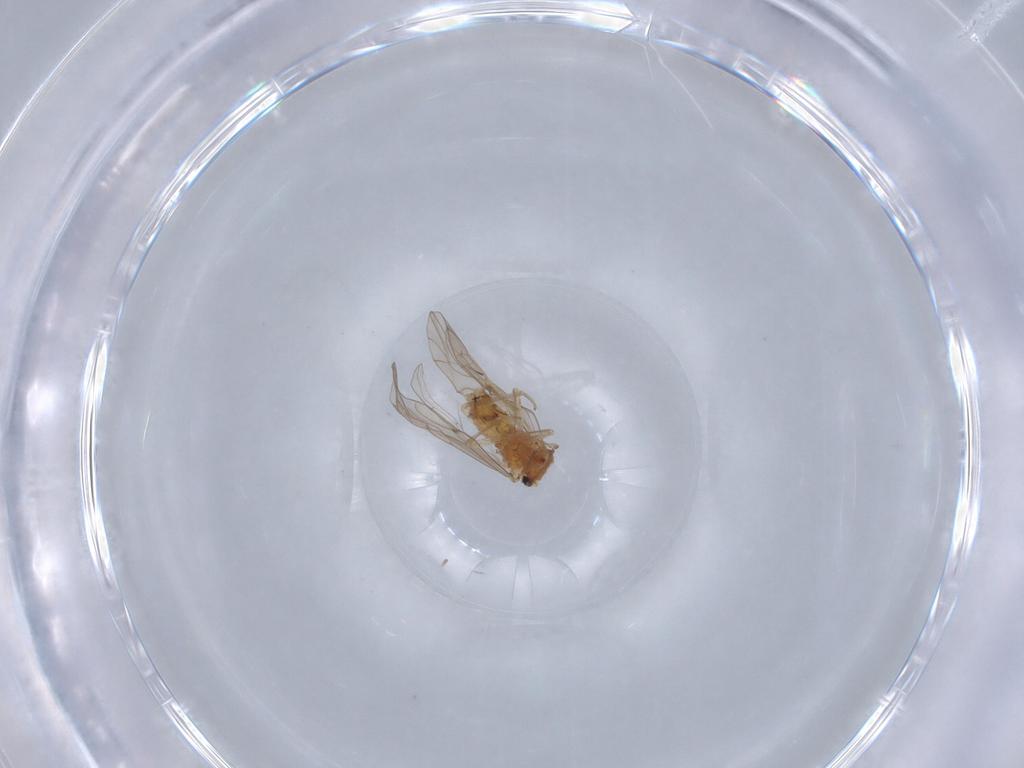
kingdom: Animalia
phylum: Arthropoda
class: Insecta
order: Psocodea
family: Ectopsocidae
